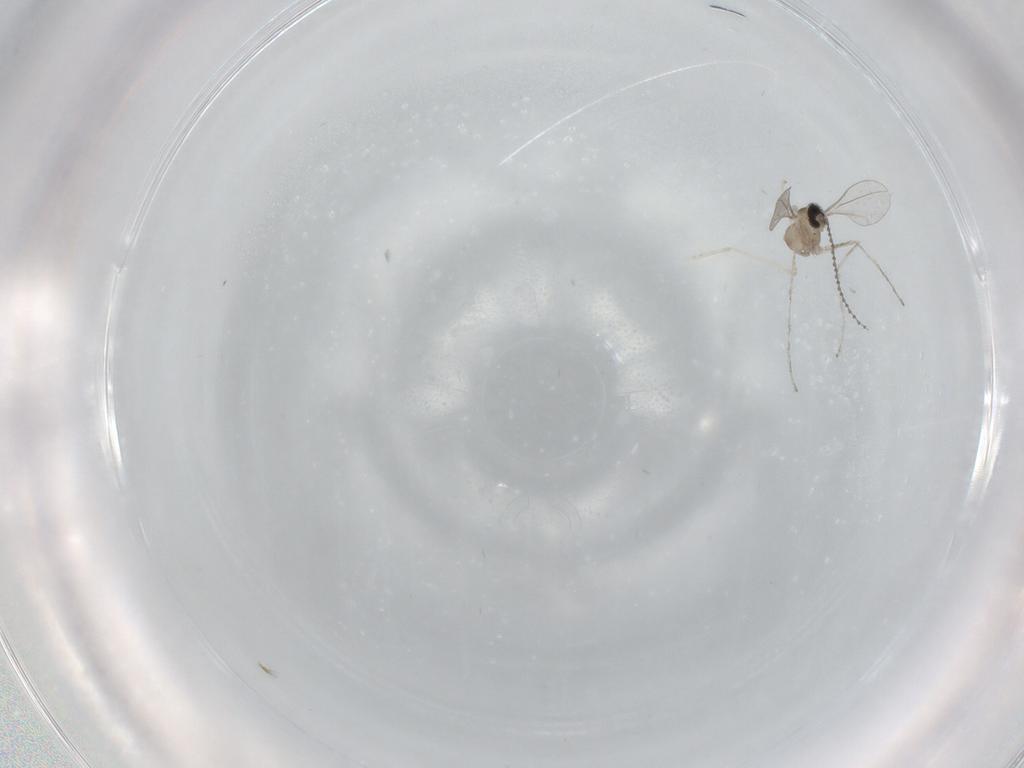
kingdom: Animalia
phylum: Arthropoda
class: Insecta
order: Diptera
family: Cecidomyiidae
